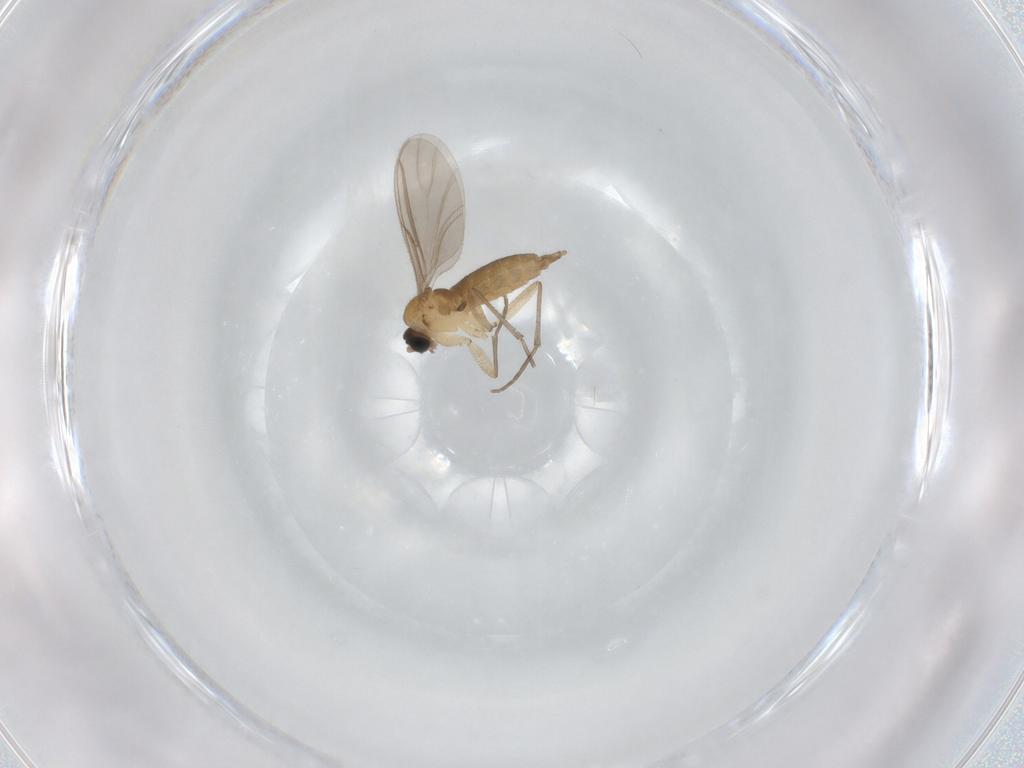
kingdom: Animalia
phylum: Arthropoda
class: Insecta
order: Diptera
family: Sciaridae
